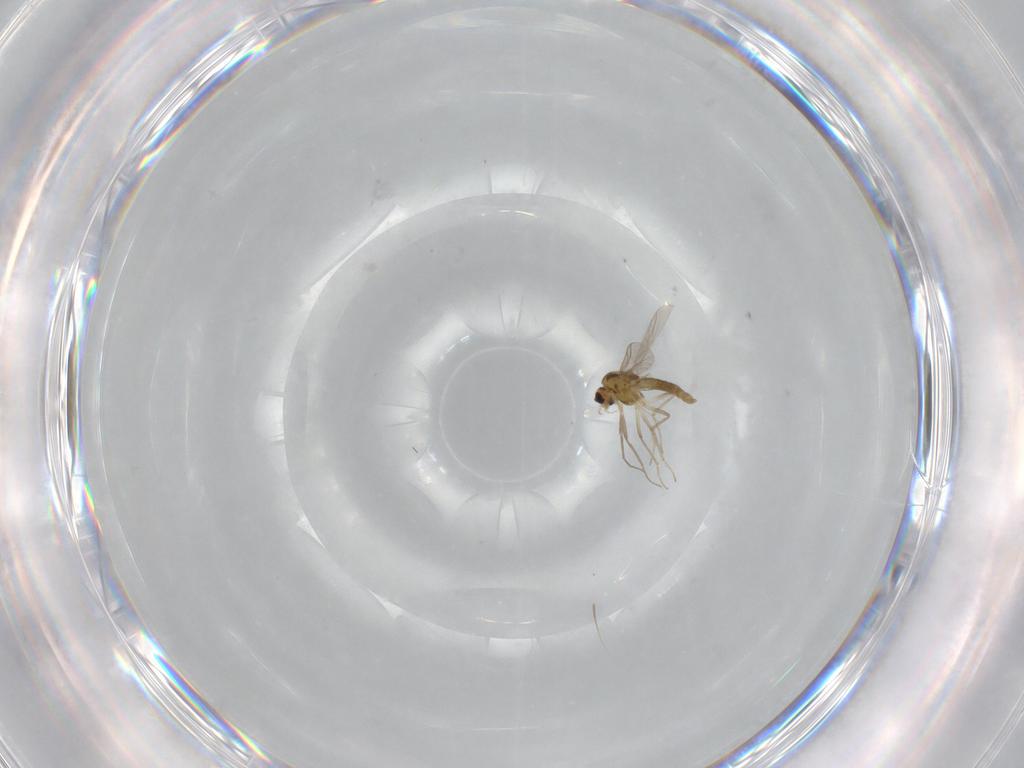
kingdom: Animalia
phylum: Arthropoda
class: Insecta
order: Diptera
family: Chironomidae
